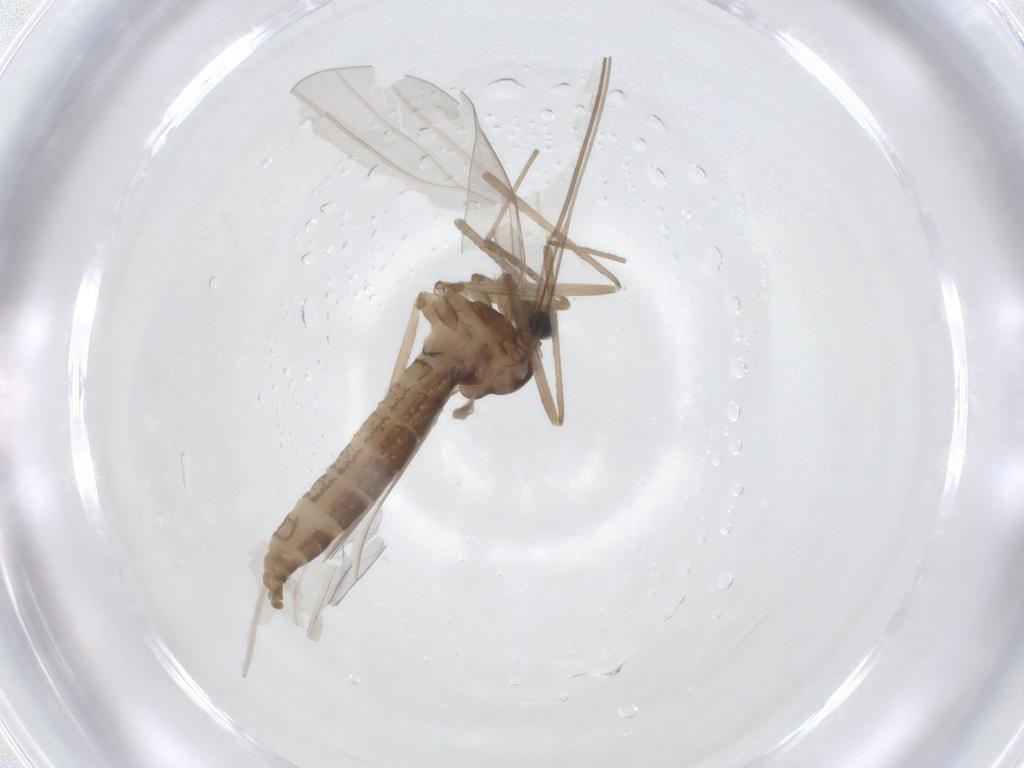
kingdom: Animalia
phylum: Arthropoda
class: Insecta
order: Diptera
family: Cecidomyiidae
